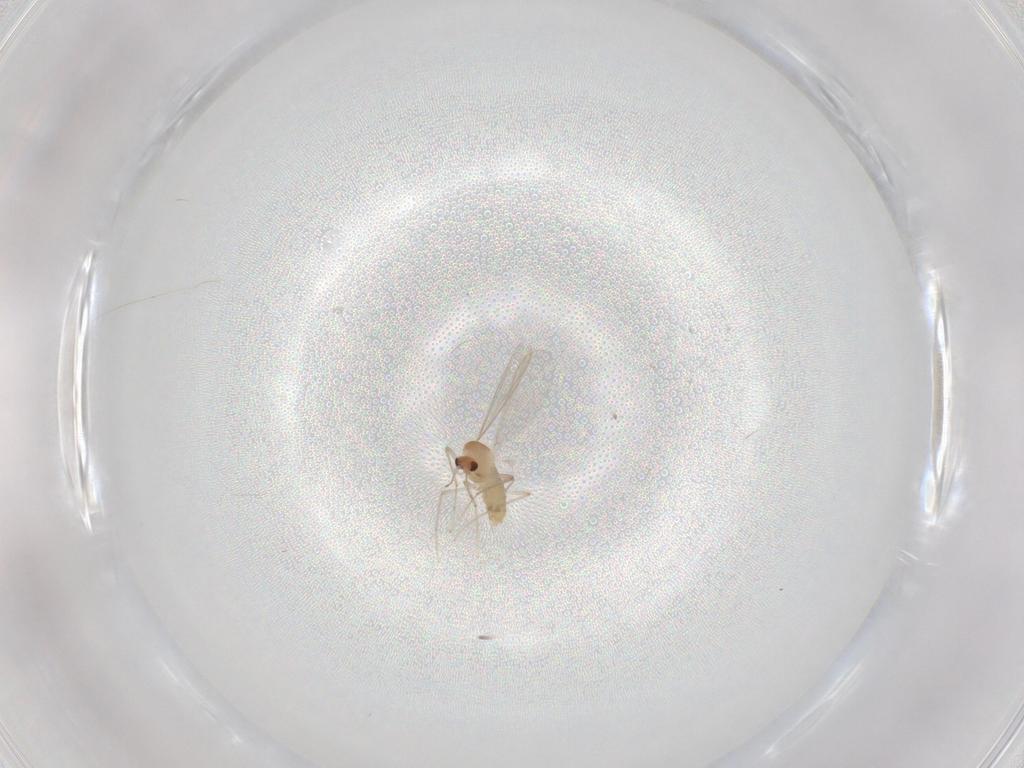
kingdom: Animalia
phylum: Arthropoda
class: Insecta
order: Diptera
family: Chironomidae
